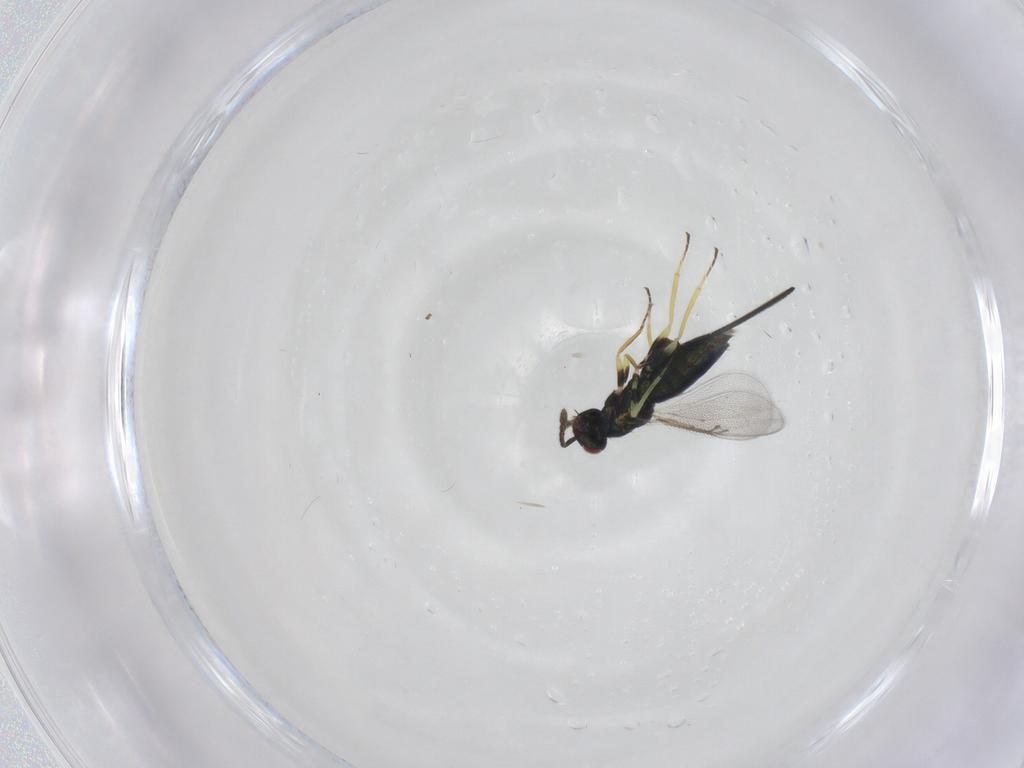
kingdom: Animalia
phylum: Arthropoda
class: Insecta
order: Hymenoptera
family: Eulophidae
